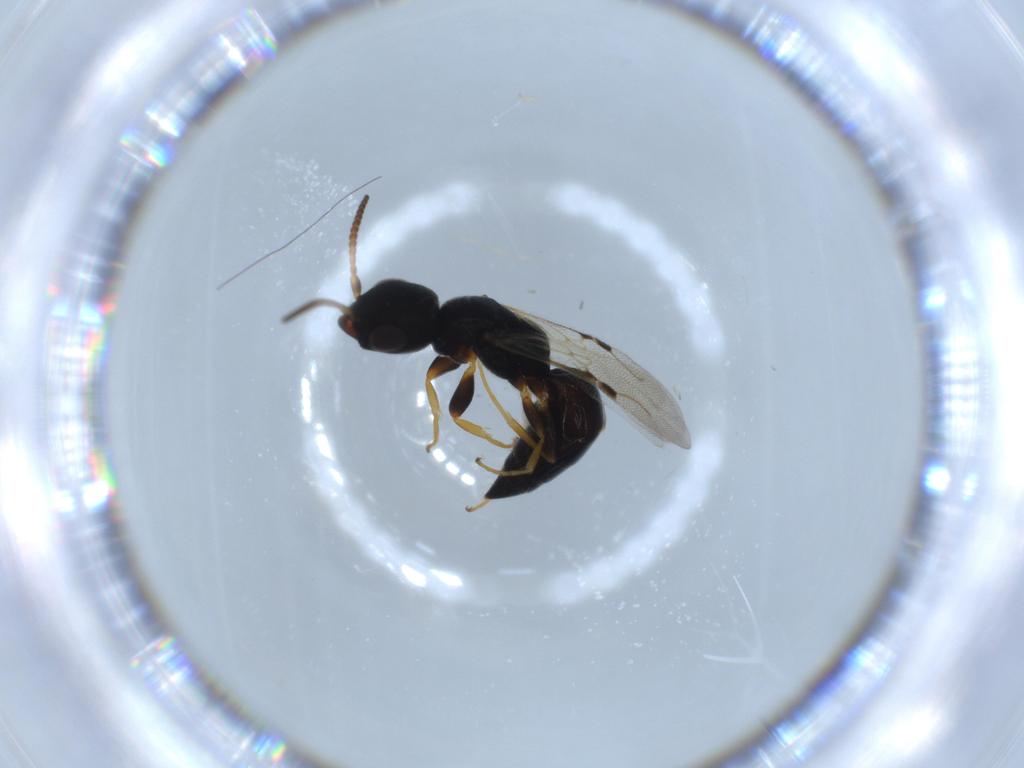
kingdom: Animalia
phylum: Arthropoda
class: Insecta
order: Hymenoptera
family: Bethylidae
